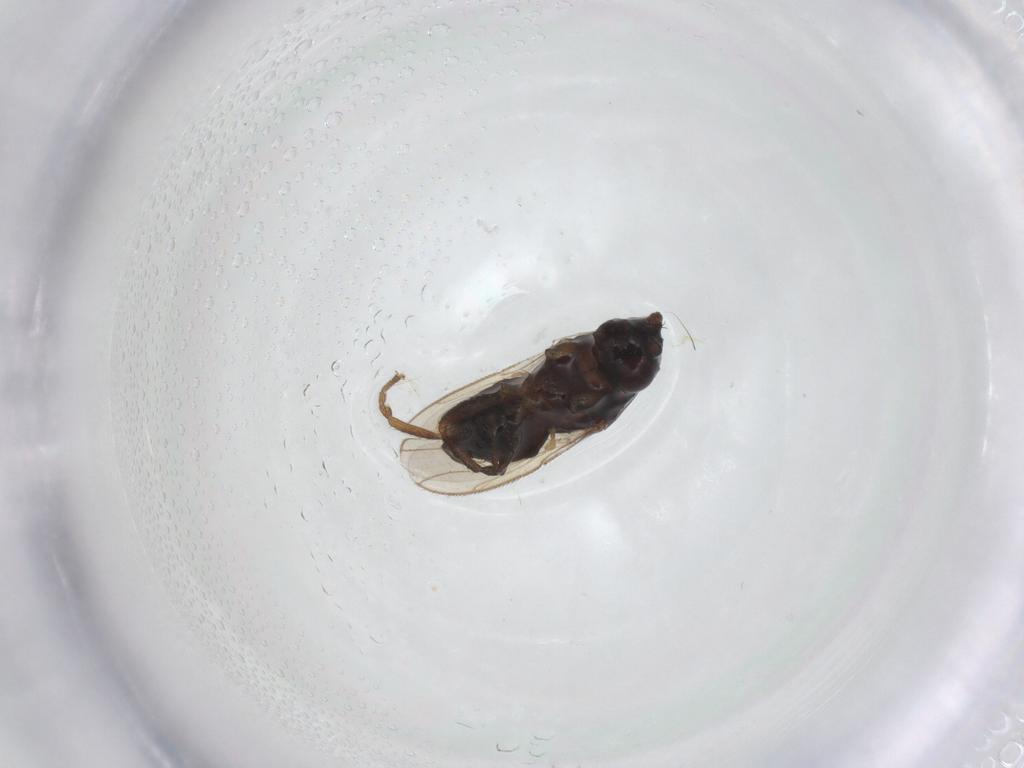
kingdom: Animalia
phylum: Arthropoda
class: Insecta
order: Diptera
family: Sphaeroceridae
